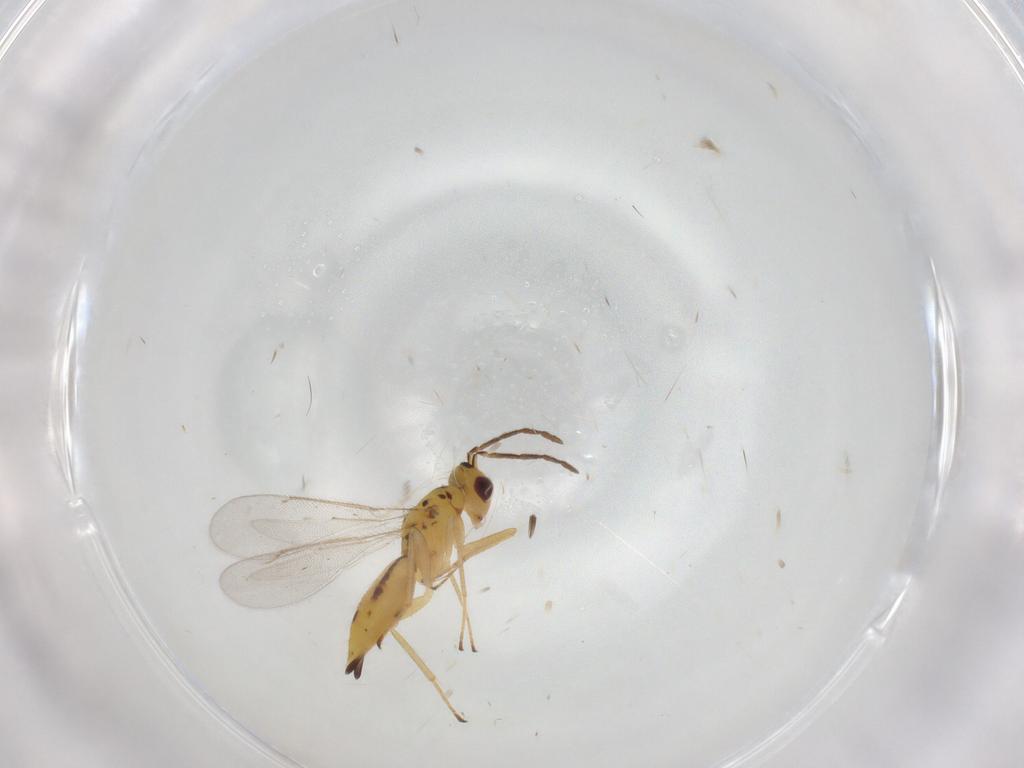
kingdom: Animalia
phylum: Arthropoda
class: Insecta
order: Hymenoptera
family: Eulophidae
